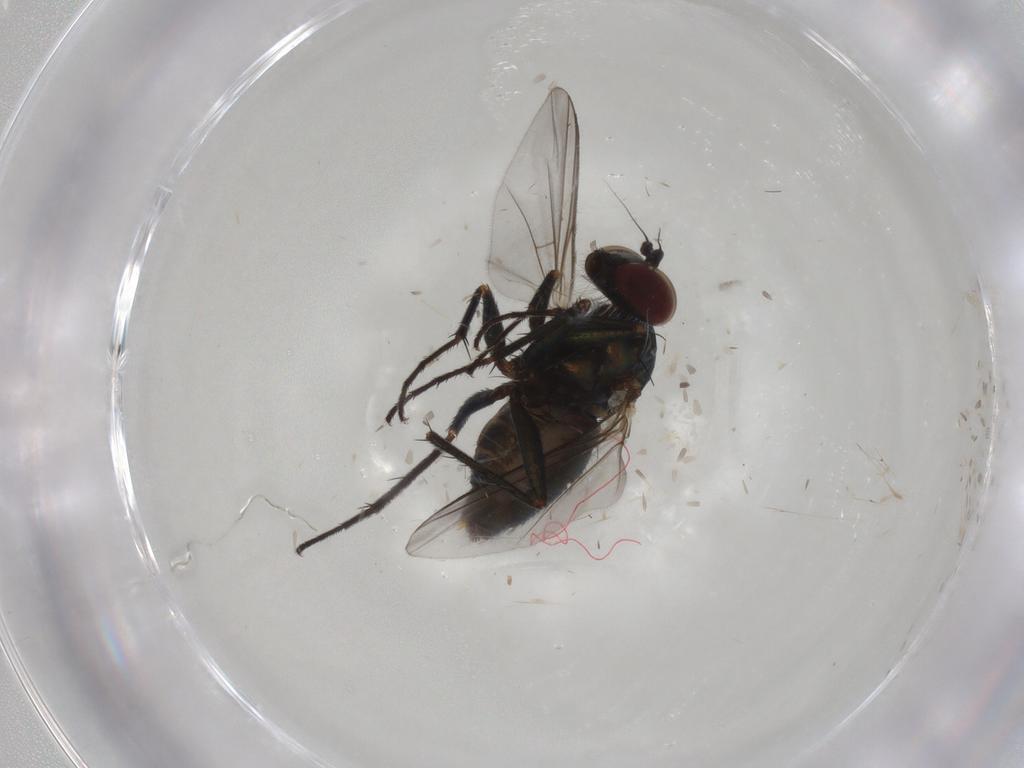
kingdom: Animalia
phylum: Arthropoda
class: Insecta
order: Diptera
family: Dolichopodidae
